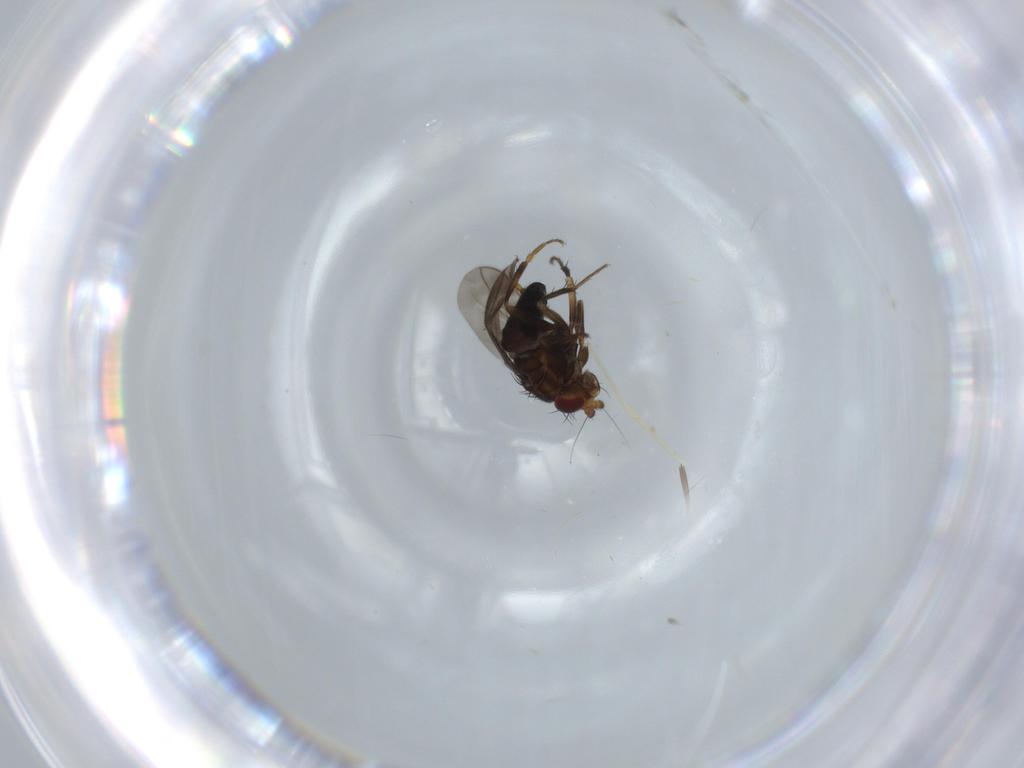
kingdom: Animalia
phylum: Arthropoda
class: Insecta
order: Diptera
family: Sphaeroceridae
